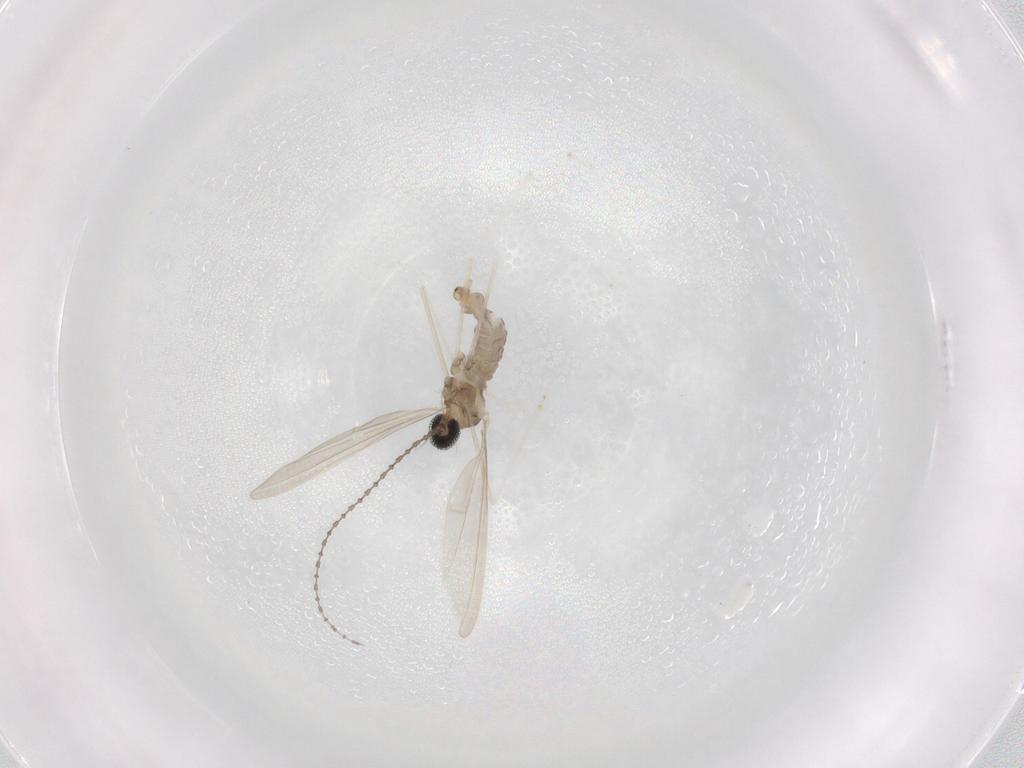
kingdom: Animalia
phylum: Arthropoda
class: Insecta
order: Diptera
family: Cecidomyiidae
